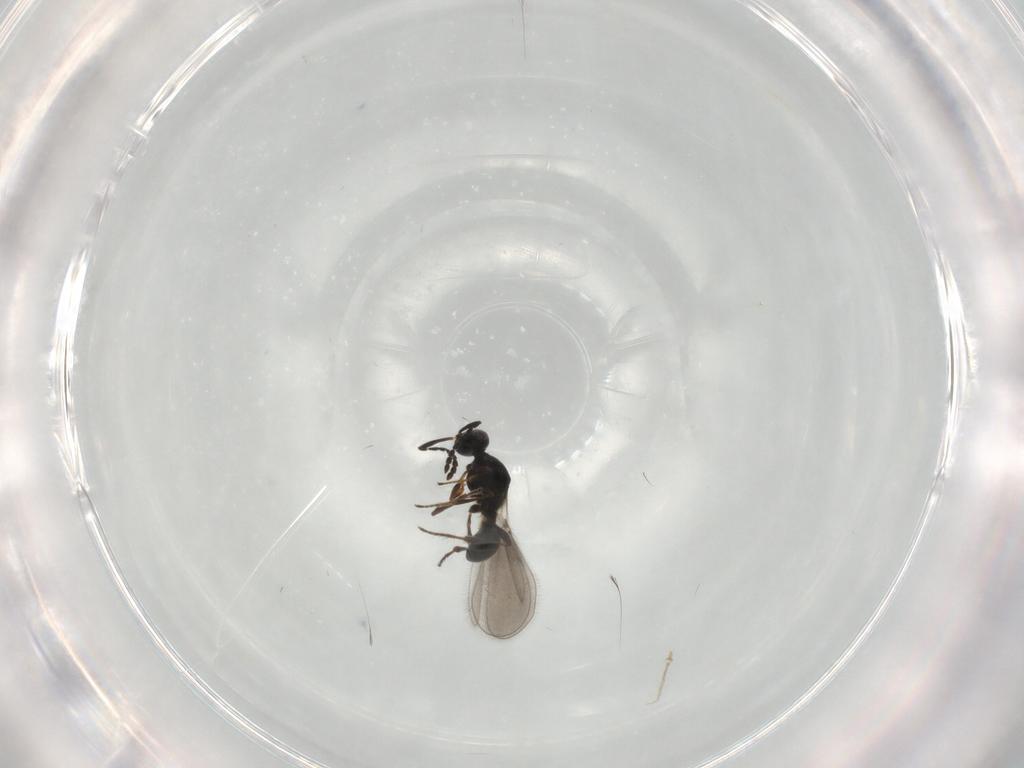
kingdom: Animalia
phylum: Arthropoda
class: Insecta
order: Hymenoptera
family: Platygastridae
